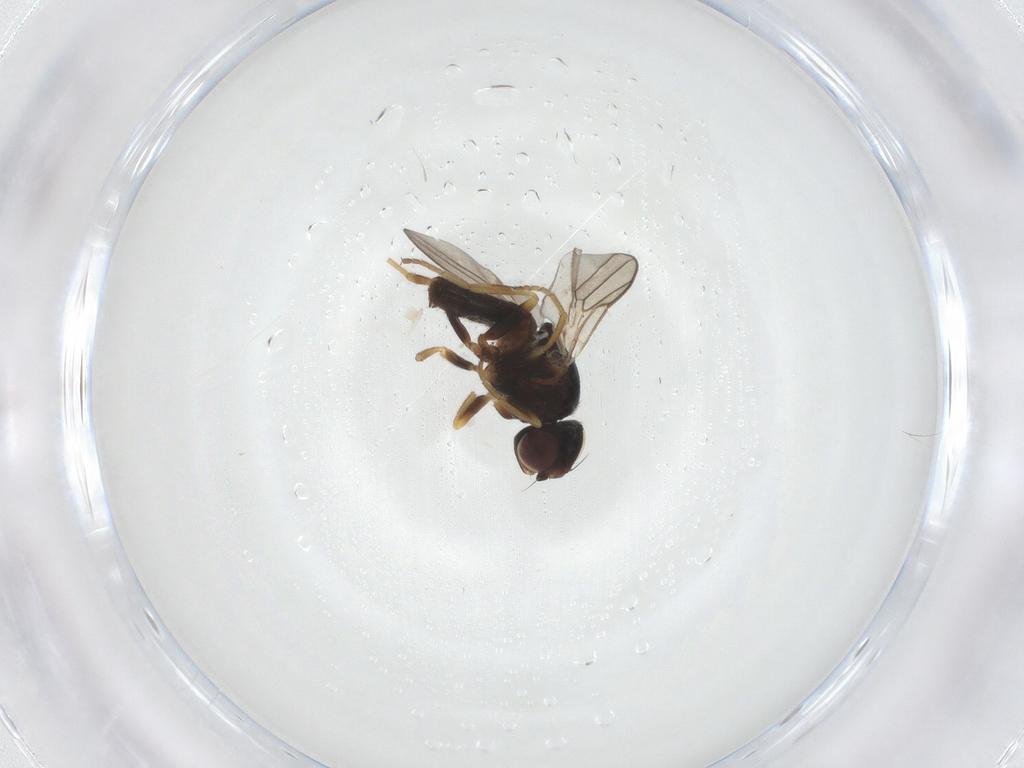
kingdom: Animalia
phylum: Arthropoda
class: Insecta
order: Diptera
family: Chloropidae
